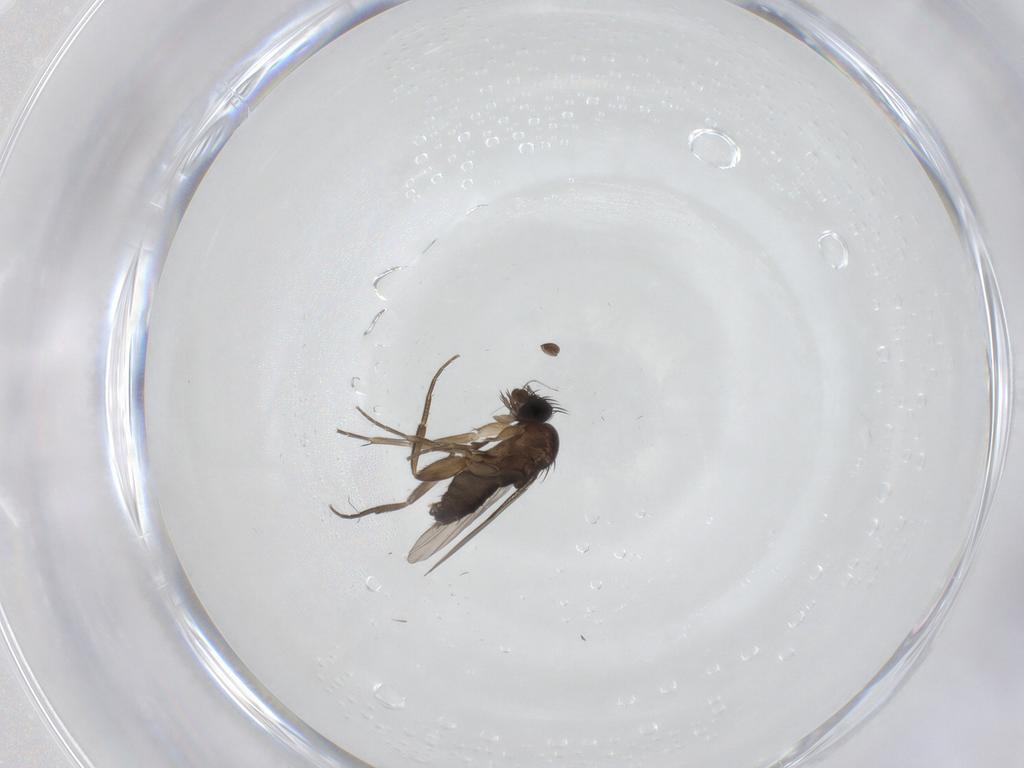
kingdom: Animalia
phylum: Arthropoda
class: Insecta
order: Diptera
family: Phoridae
